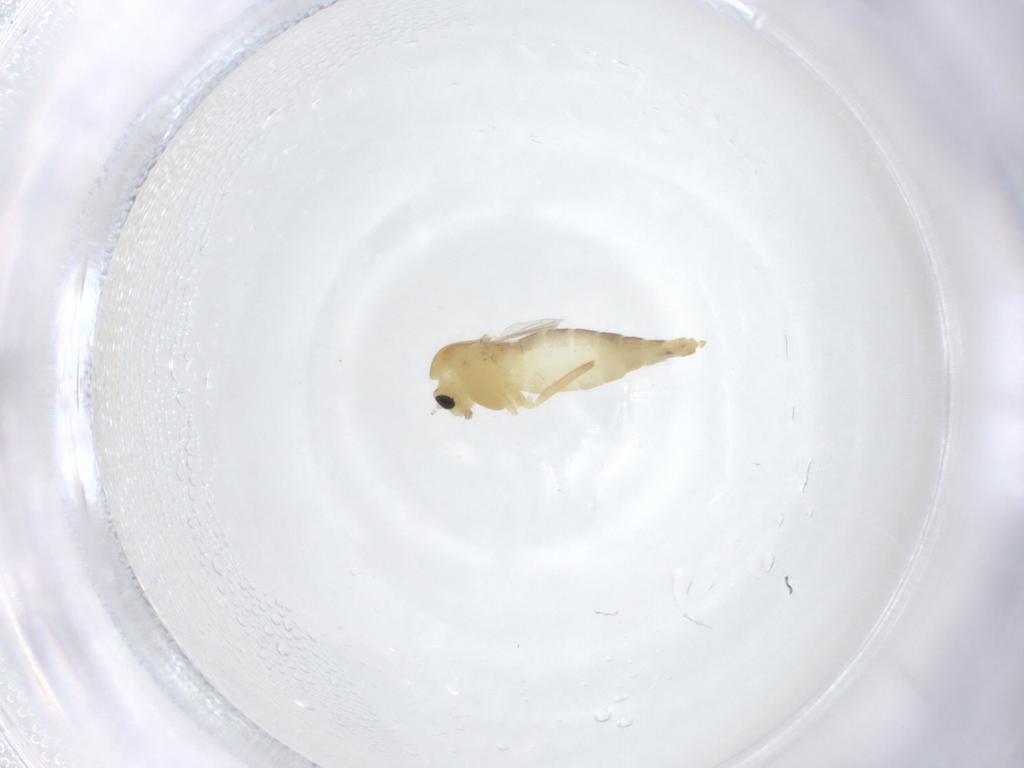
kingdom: Animalia
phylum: Arthropoda
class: Insecta
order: Diptera
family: Chironomidae
